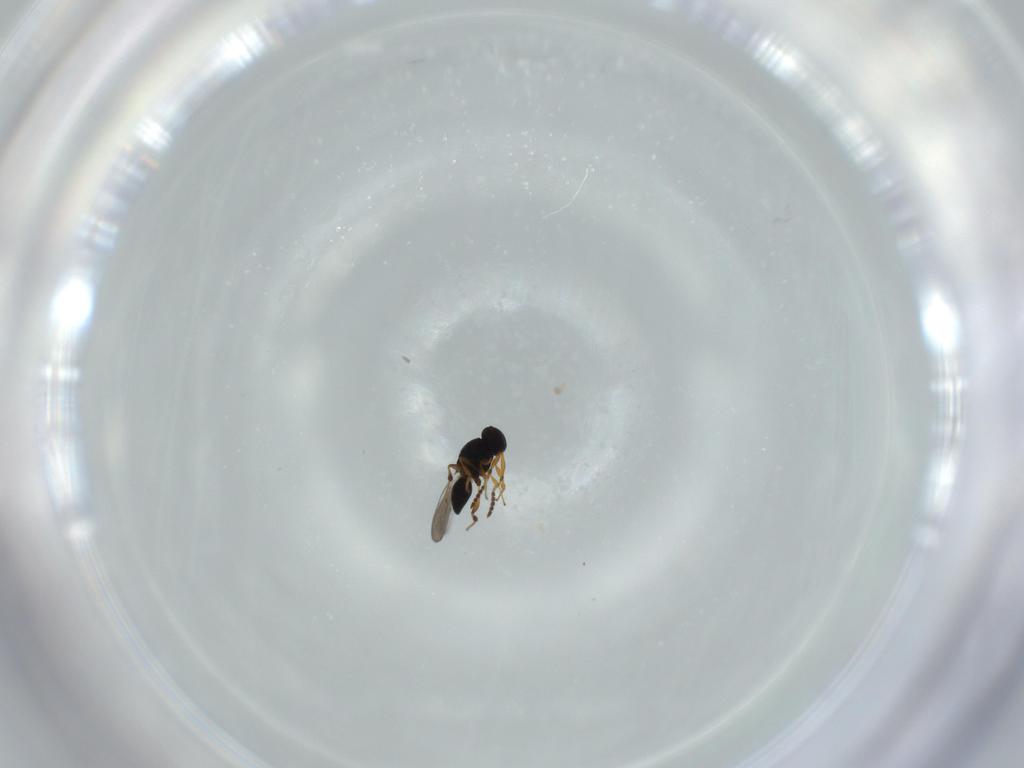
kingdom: Animalia
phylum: Arthropoda
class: Insecta
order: Hymenoptera
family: Platygastridae
